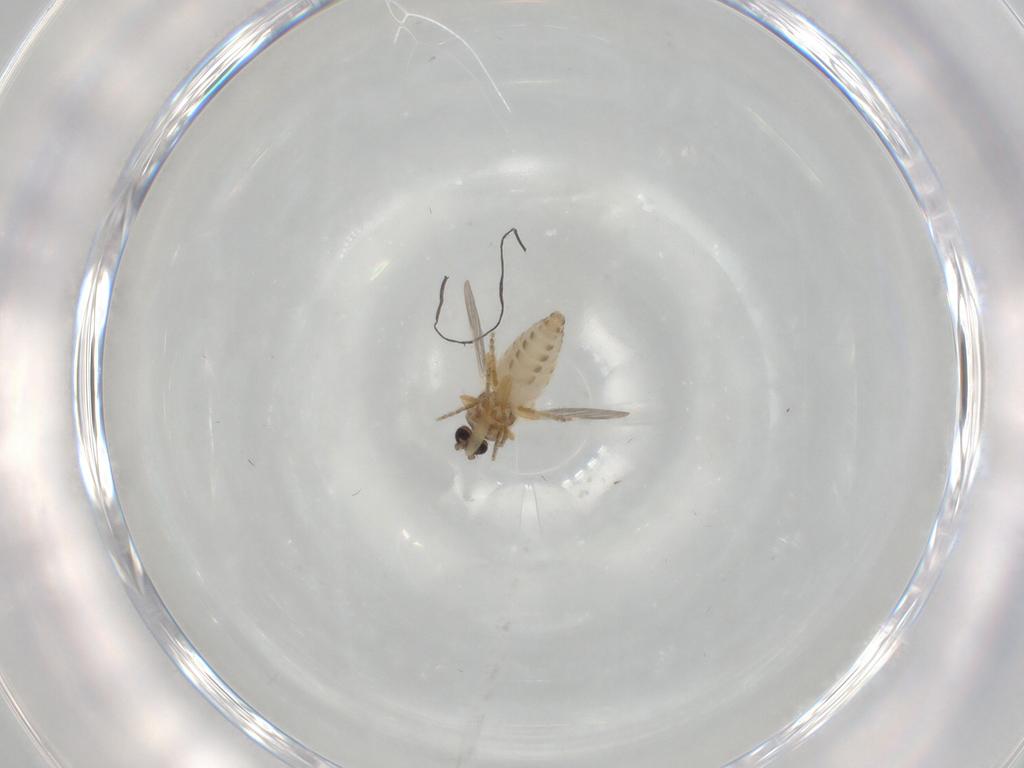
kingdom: Animalia
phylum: Arthropoda
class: Insecta
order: Diptera
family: Ceratopogonidae
